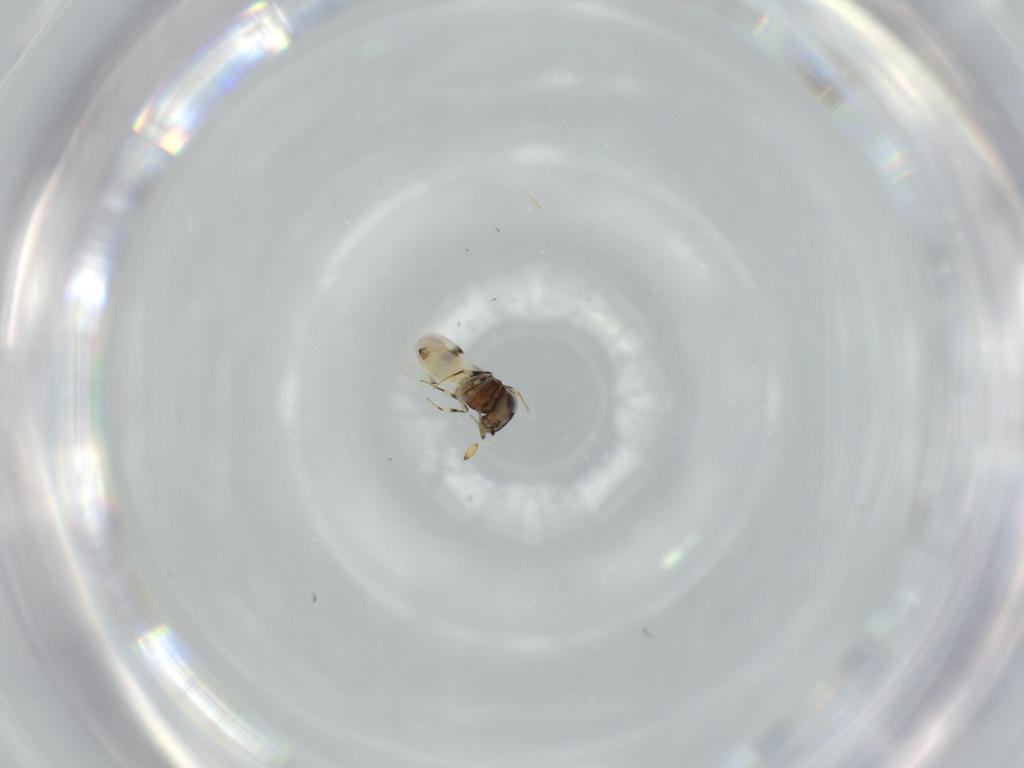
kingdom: Animalia
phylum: Arthropoda
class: Insecta
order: Hymenoptera
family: Scelionidae
